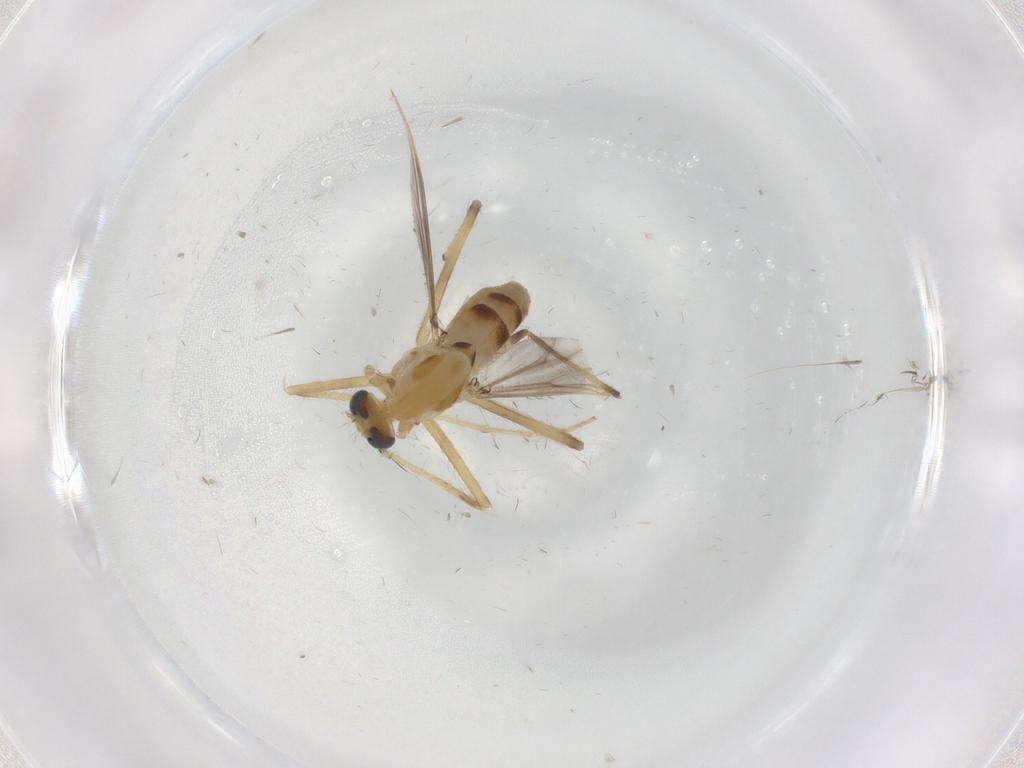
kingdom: Animalia
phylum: Arthropoda
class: Insecta
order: Diptera
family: Chironomidae
